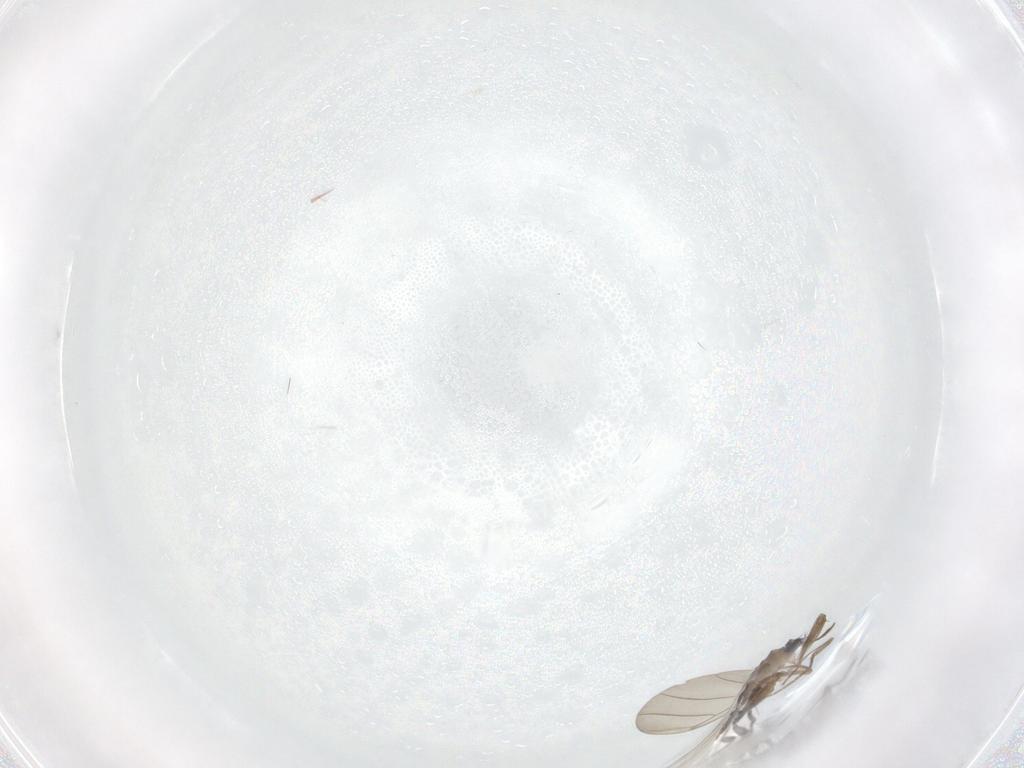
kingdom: Animalia
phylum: Arthropoda
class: Insecta
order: Diptera
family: Phoridae
